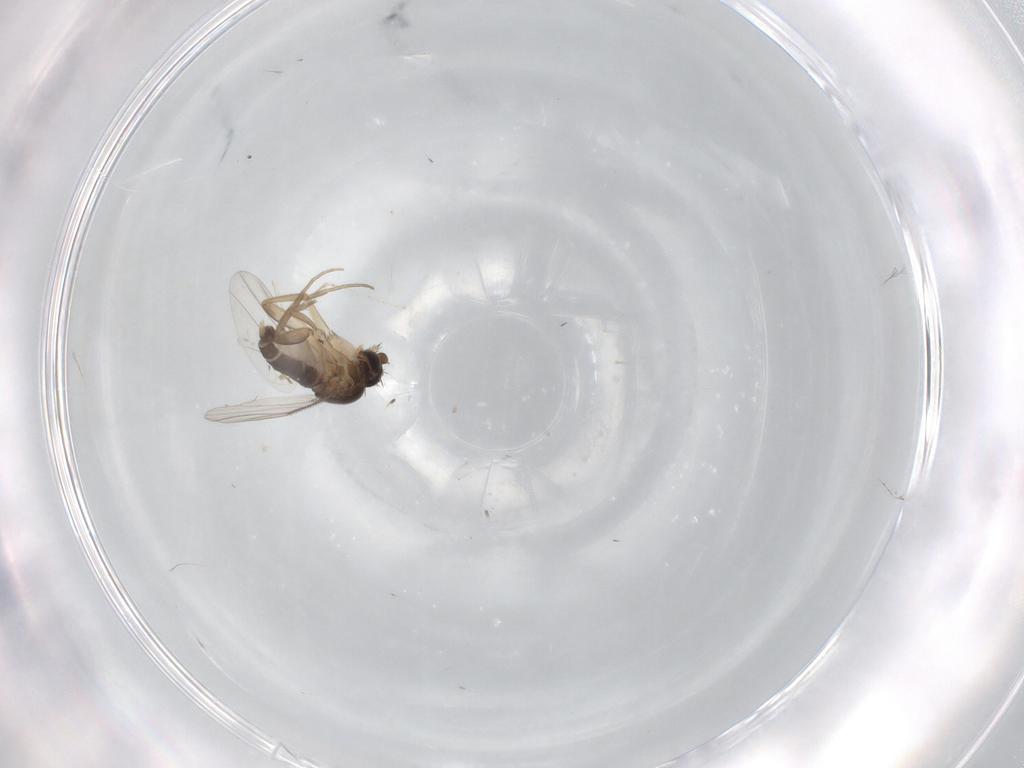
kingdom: Animalia
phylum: Arthropoda
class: Insecta
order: Diptera
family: Phoridae
